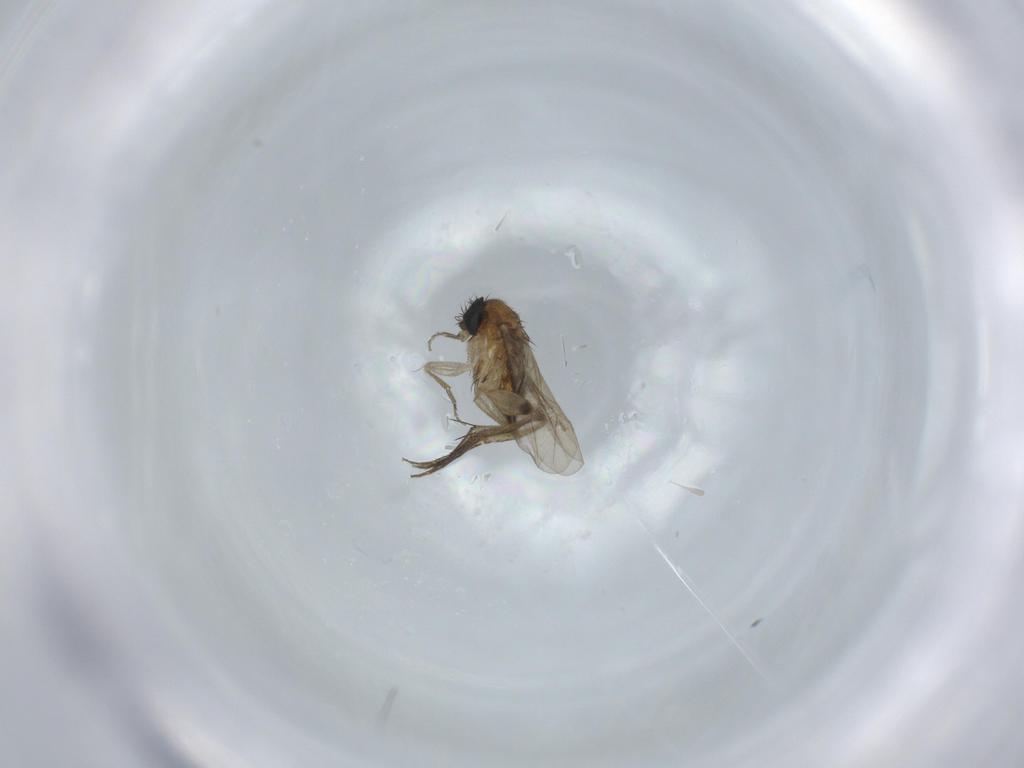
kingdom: Animalia
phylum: Arthropoda
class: Insecta
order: Diptera
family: Phoridae
